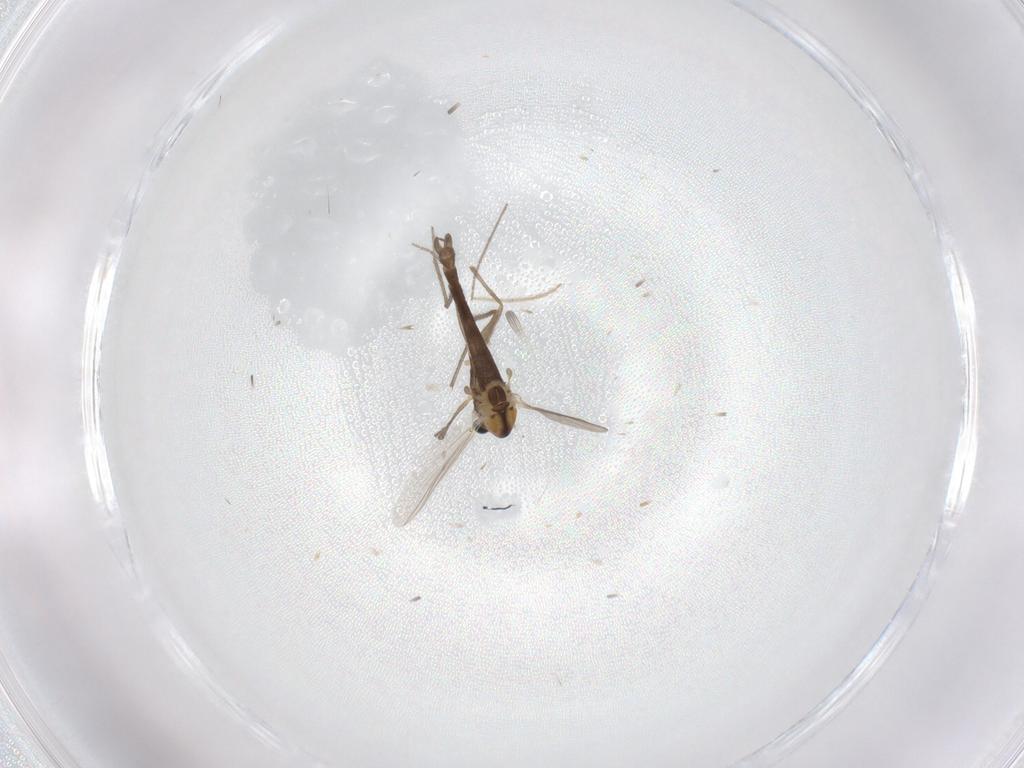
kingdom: Animalia
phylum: Arthropoda
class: Insecta
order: Diptera
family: Chironomidae
